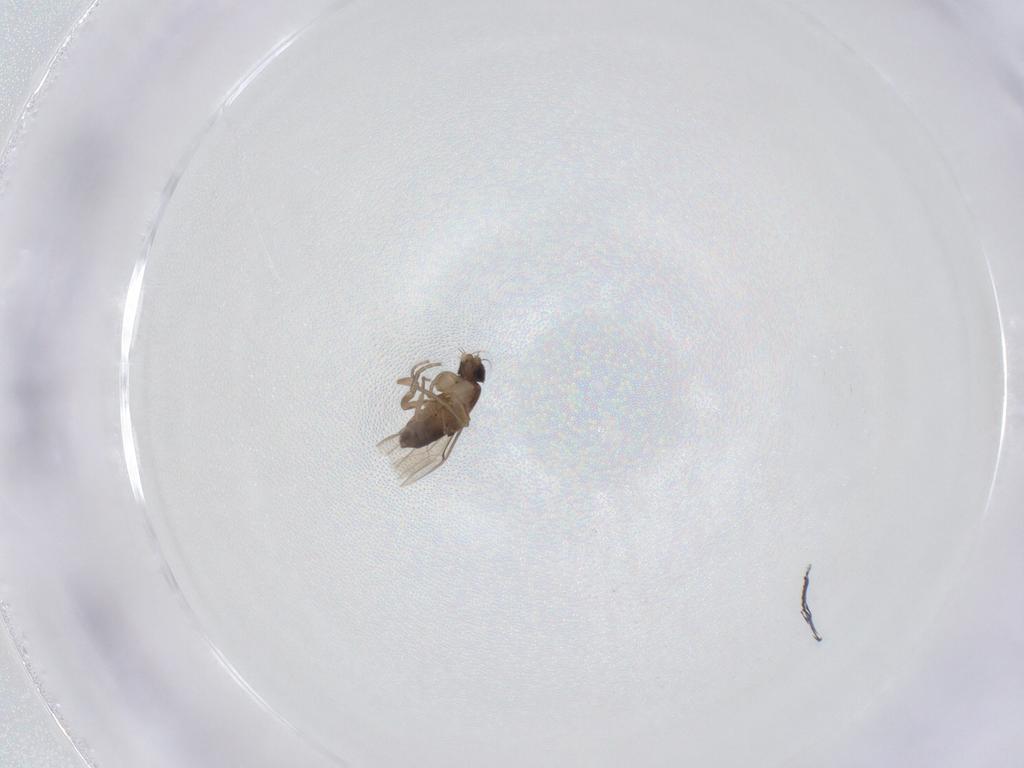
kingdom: Animalia
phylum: Arthropoda
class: Insecta
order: Diptera
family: Phoridae
